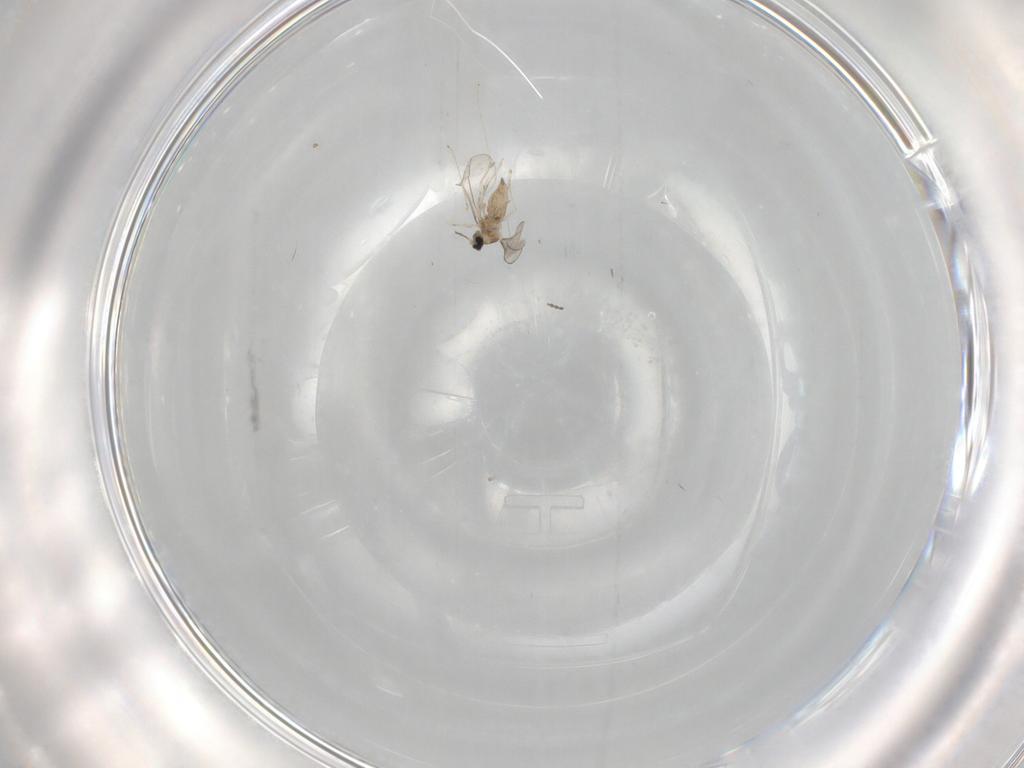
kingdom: Animalia
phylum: Arthropoda
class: Insecta
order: Diptera
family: Cecidomyiidae
